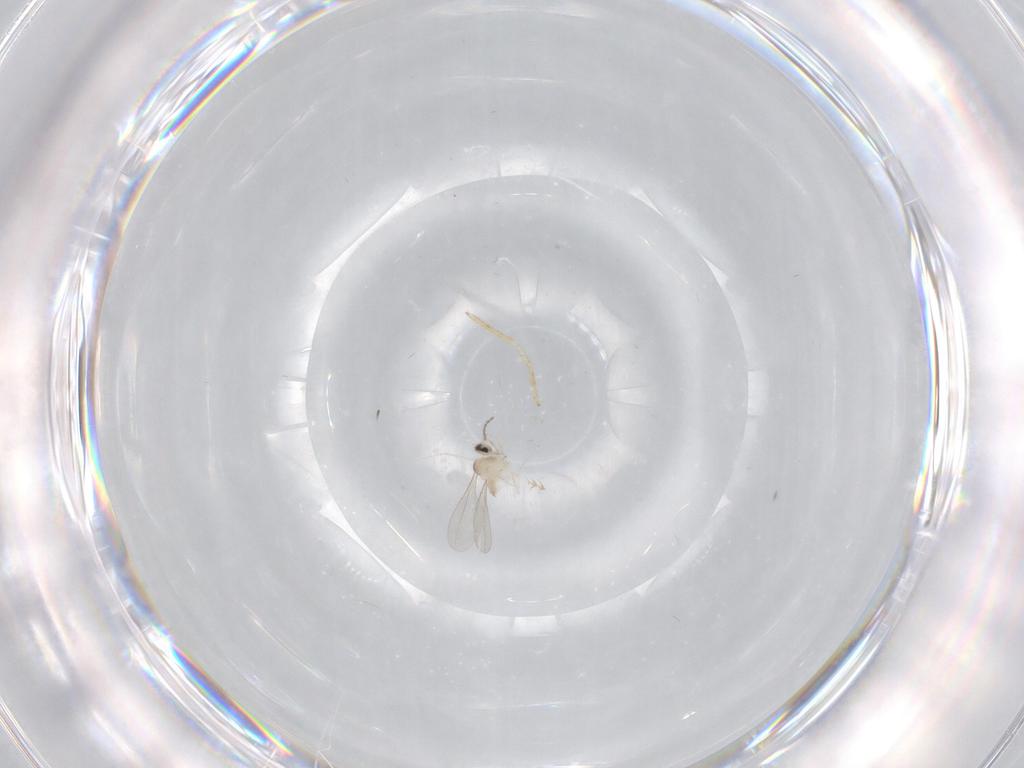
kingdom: Animalia
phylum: Arthropoda
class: Insecta
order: Diptera
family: Cecidomyiidae
